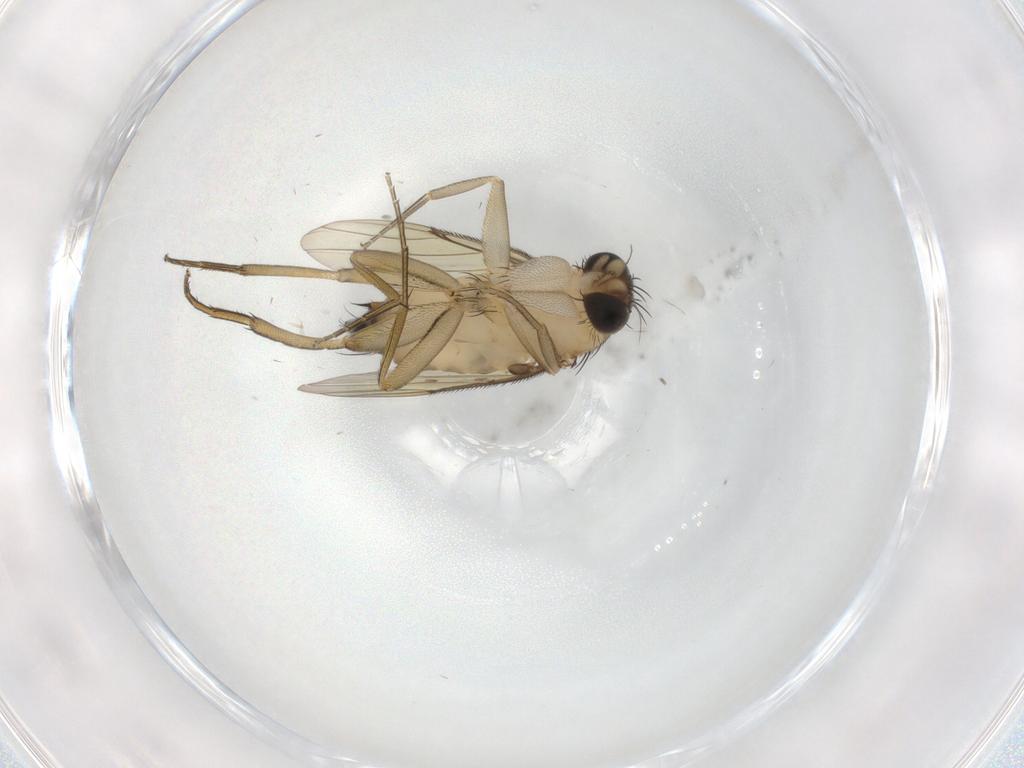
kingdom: Animalia
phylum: Arthropoda
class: Insecta
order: Diptera
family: Phoridae
